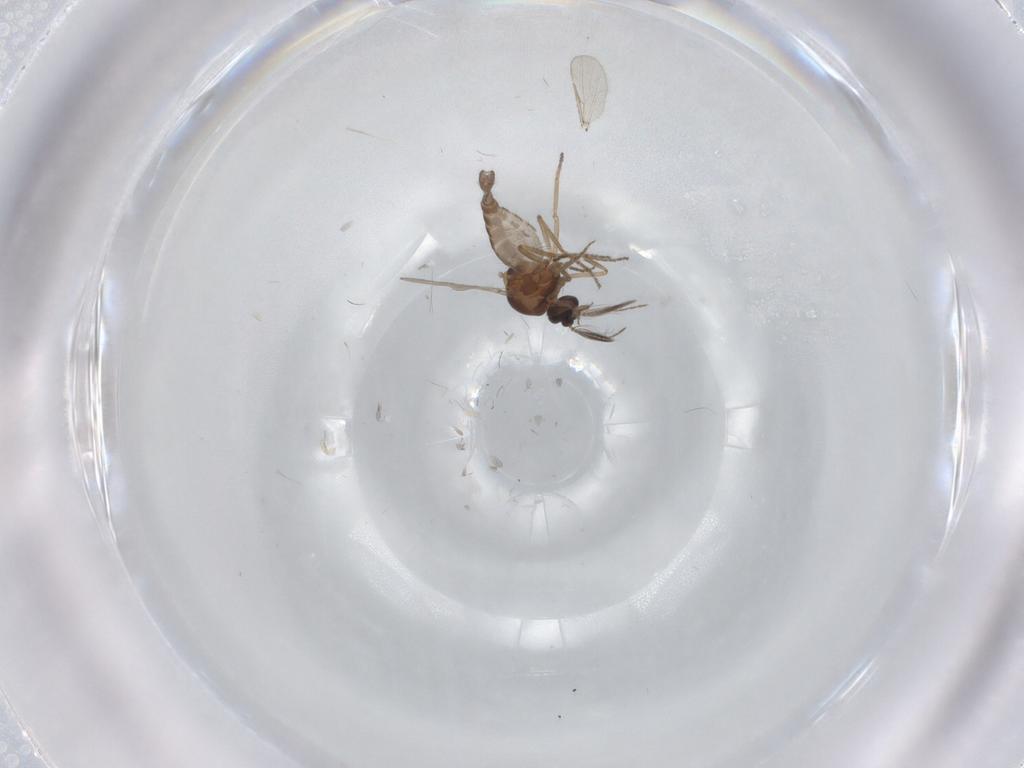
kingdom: Animalia
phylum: Arthropoda
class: Insecta
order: Diptera
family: Ceratopogonidae
